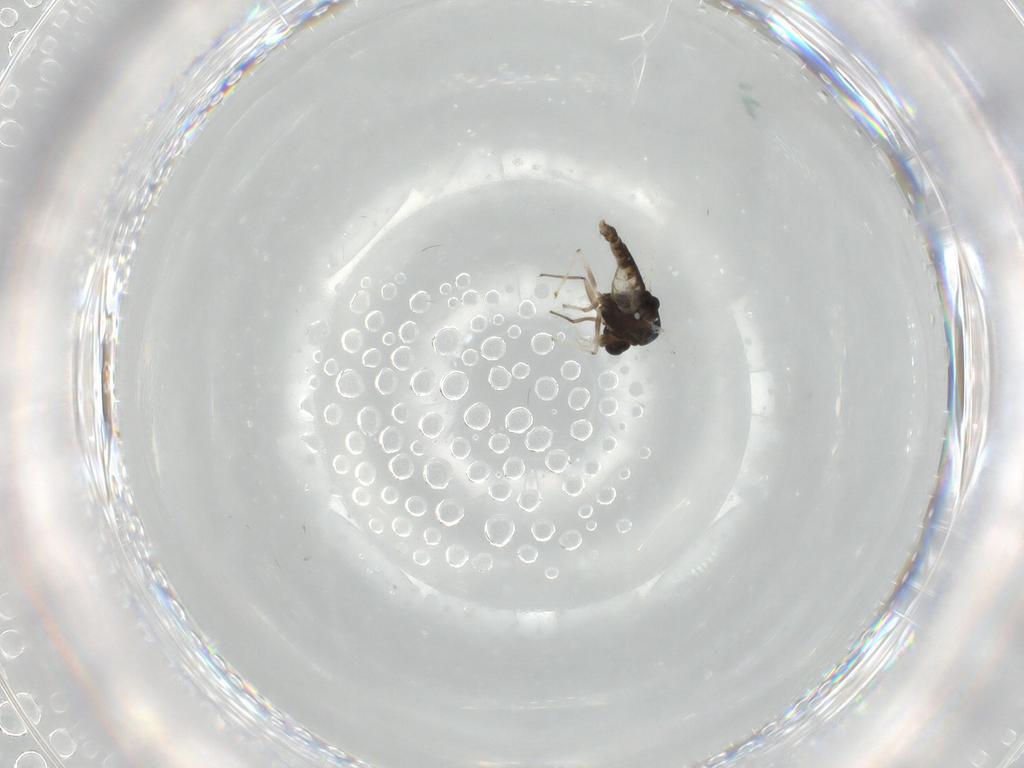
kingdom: Animalia
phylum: Arthropoda
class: Insecta
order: Diptera
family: Chironomidae
